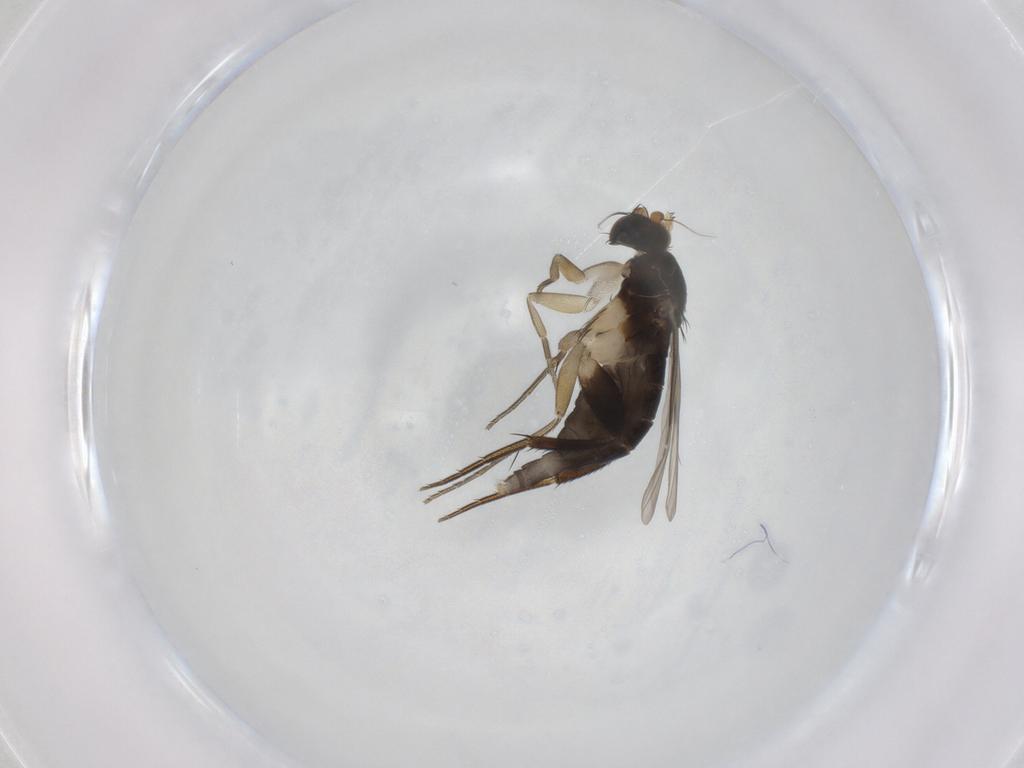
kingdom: Animalia
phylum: Arthropoda
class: Insecta
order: Diptera
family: Phoridae
